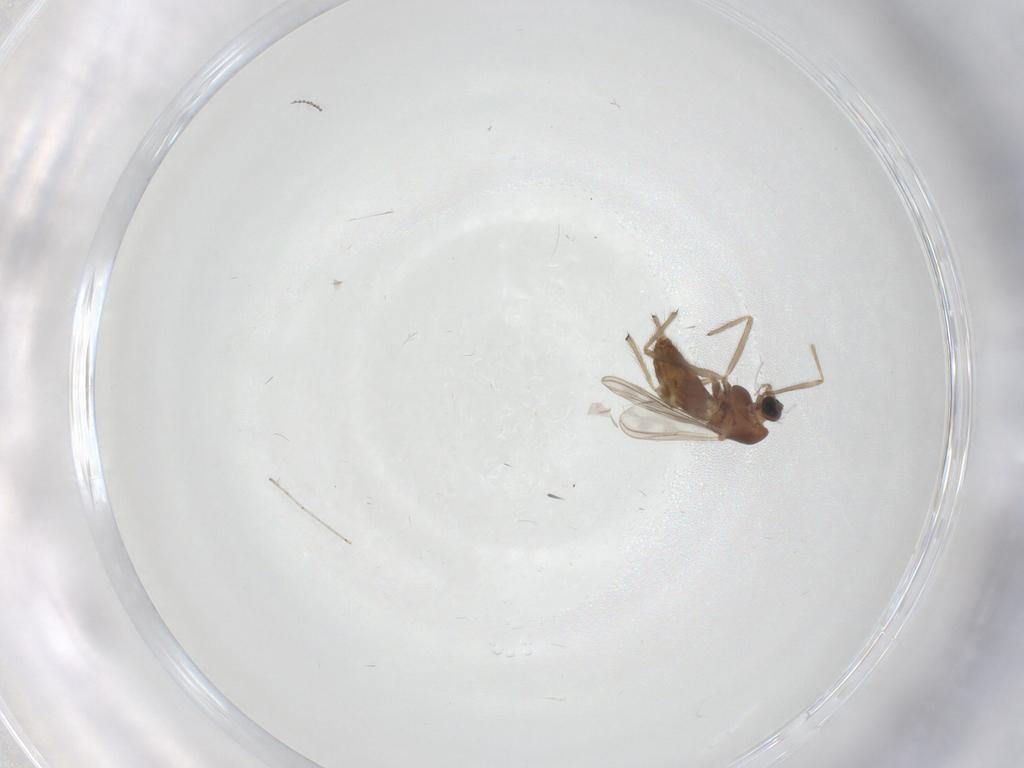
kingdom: Animalia
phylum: Arthropoda
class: Insecta
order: Diptera
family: Chironomidae
